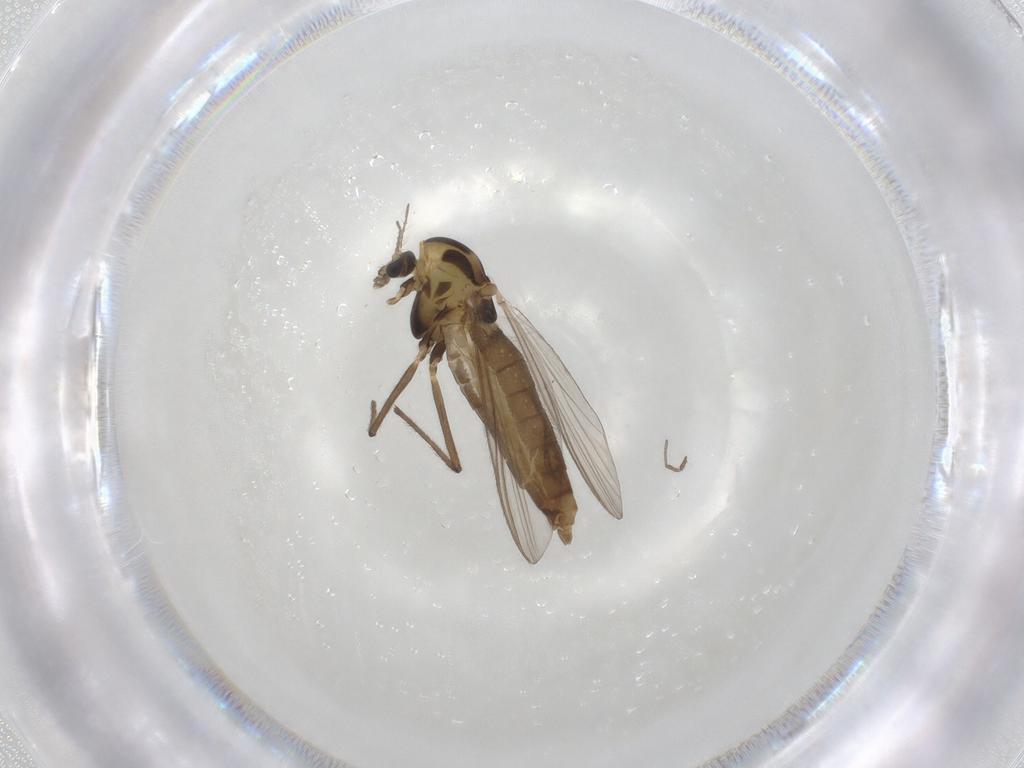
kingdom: Animalia
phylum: Arthropoda
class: Insecta
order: Diptera
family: Chironomidae
